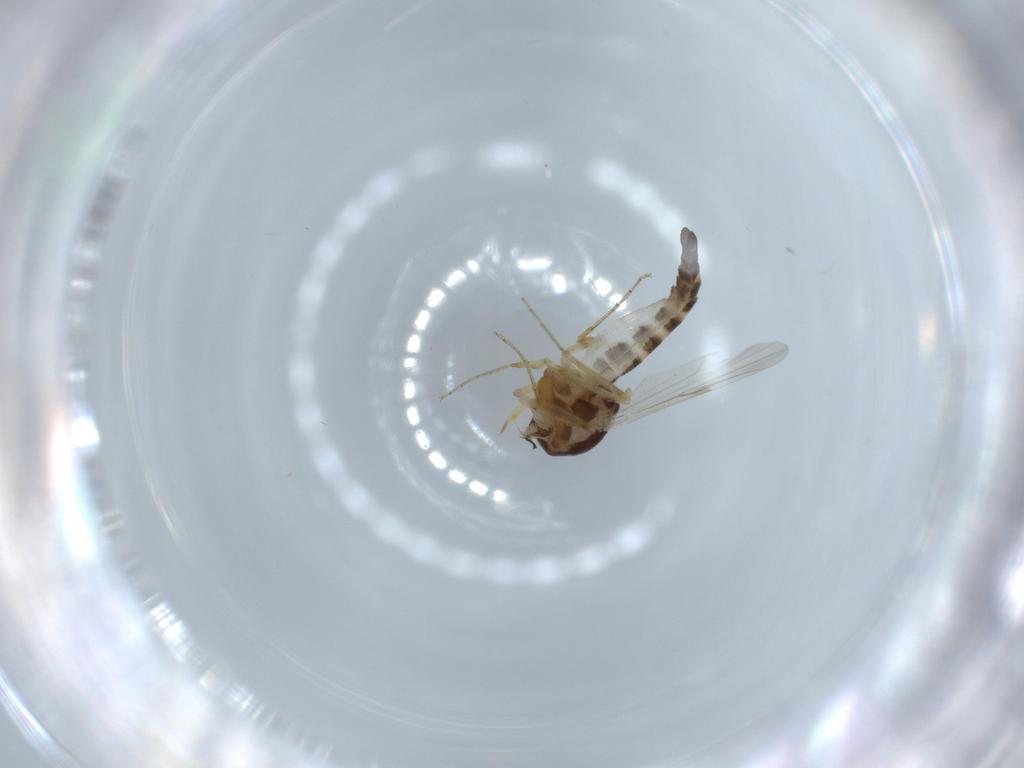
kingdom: Animalia
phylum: Arthropoda
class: Insecta
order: Diptera
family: Ceratopogonidae
